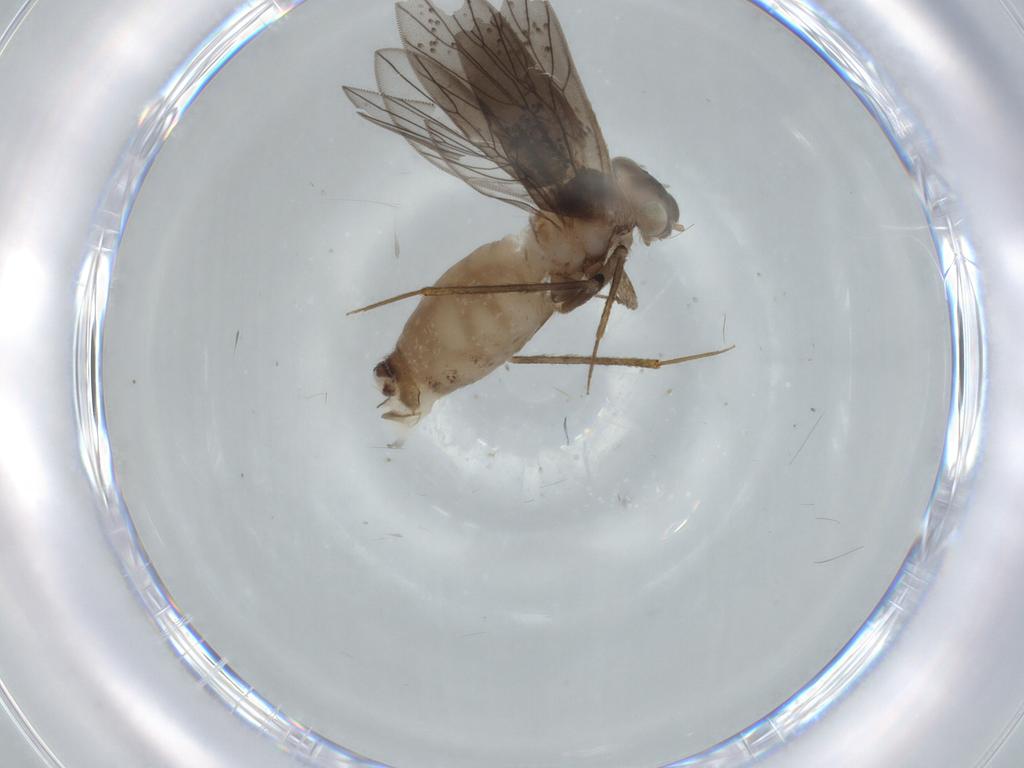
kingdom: Animalia
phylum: Arthropoda
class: Insecta
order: Psocodea
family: Lepidopsocidae
